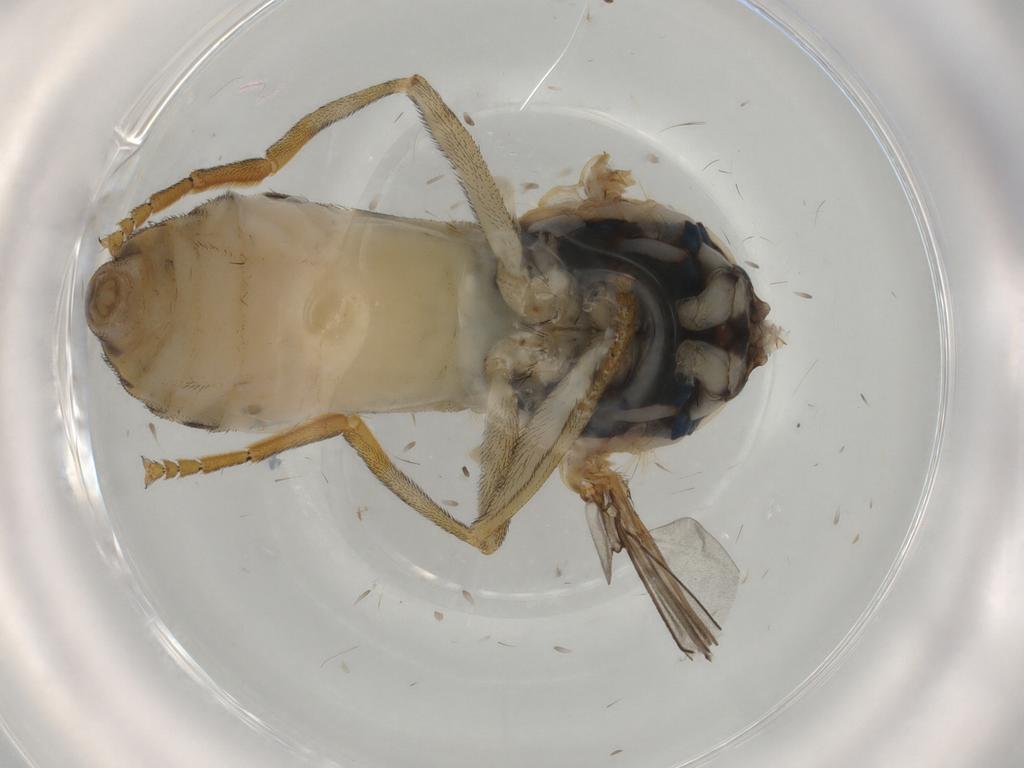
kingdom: Animalia
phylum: Arthropoda
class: Insecta
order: Diptera
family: Syrphidae
